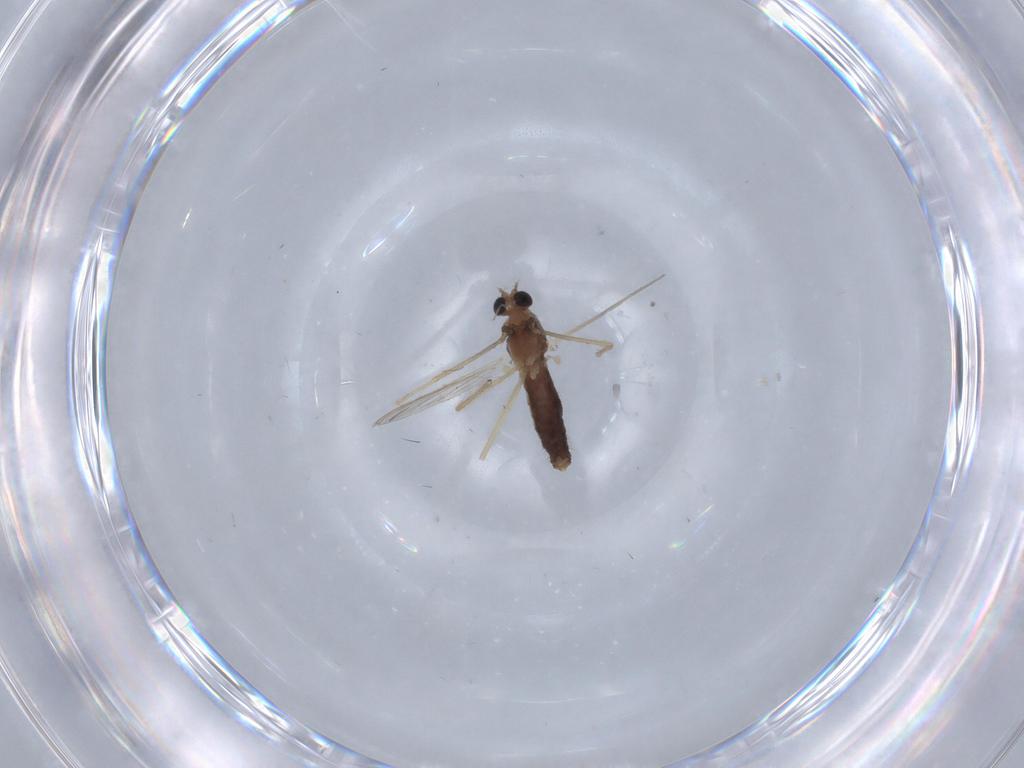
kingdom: Animalia
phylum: Arthropoda
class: Insecta
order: Diptera
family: Chironomidae
